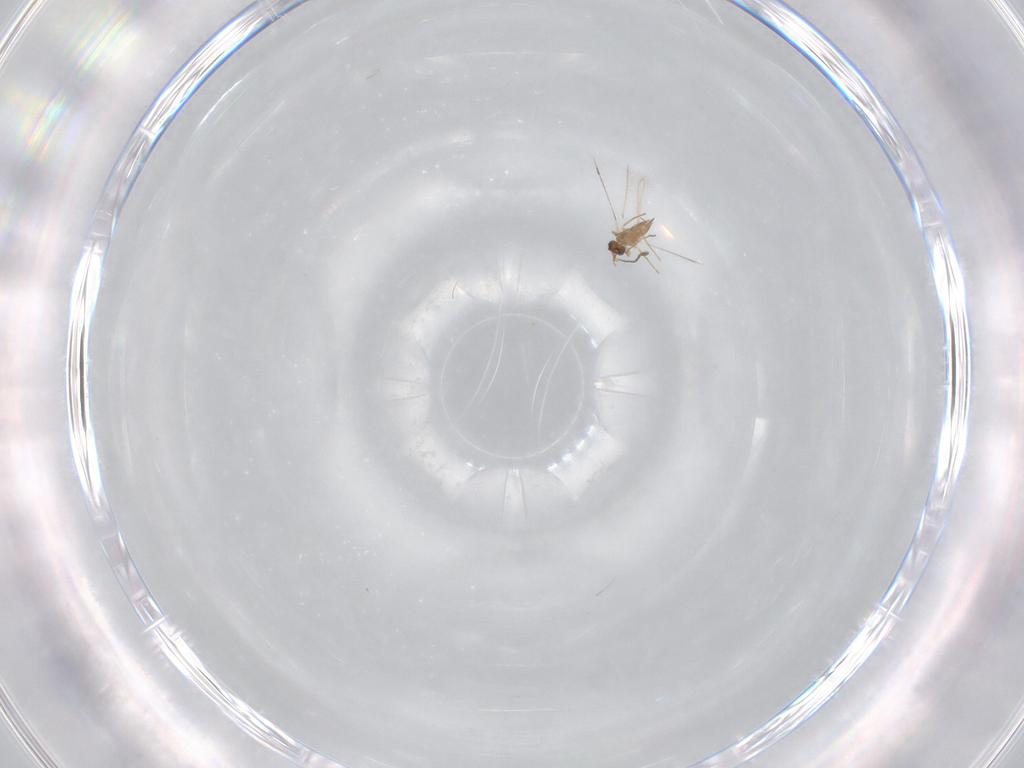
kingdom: Animalia
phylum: Arthropoda
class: Insecta
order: Hymenoptera
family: Mymaridae
